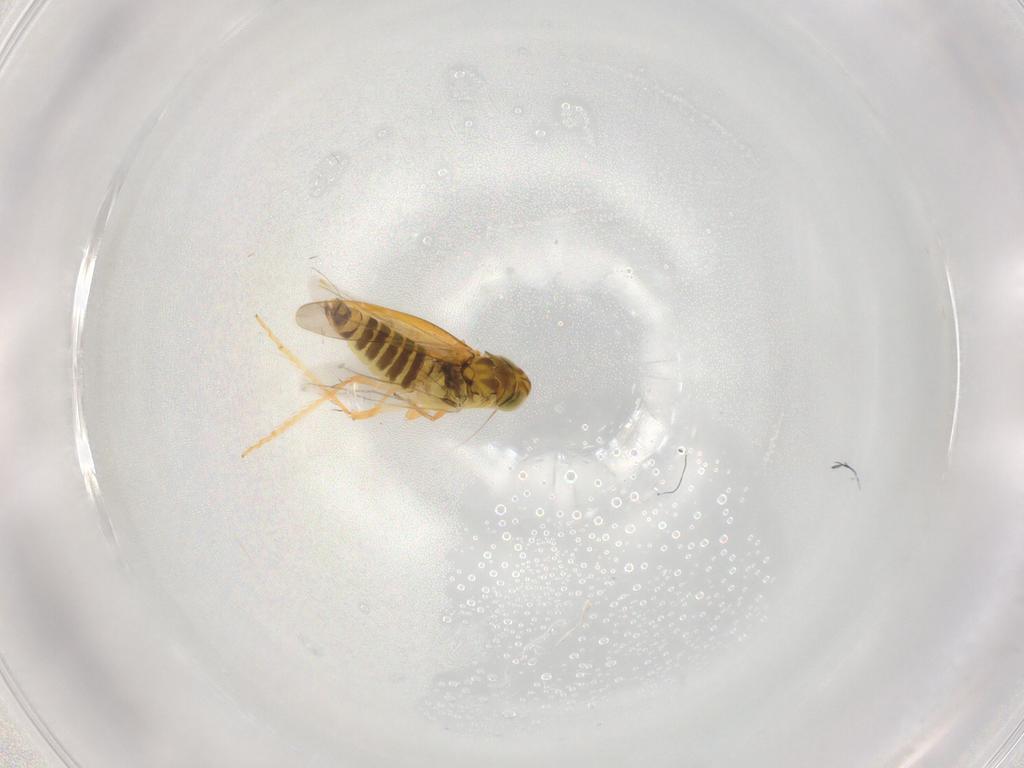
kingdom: Animalia
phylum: Arthropoda
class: Insecta
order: Hemiptera
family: Cicadellidae
